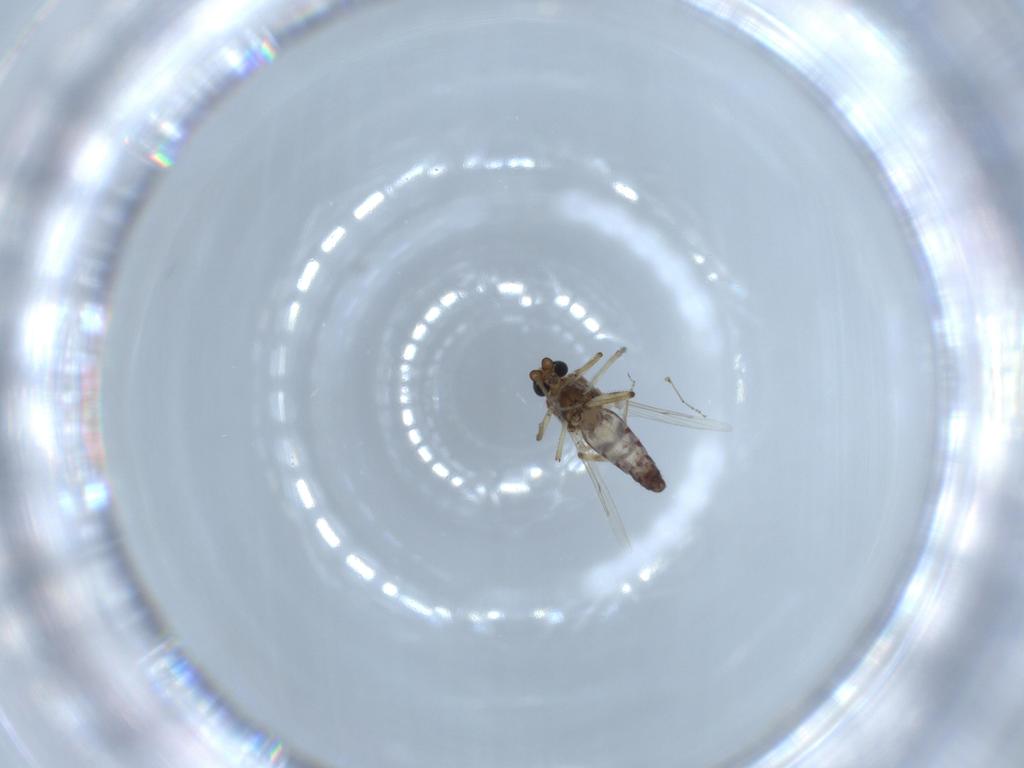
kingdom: Animalia
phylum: Arthropoda
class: Insecta
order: Diptera
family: Ceratopogonidae
